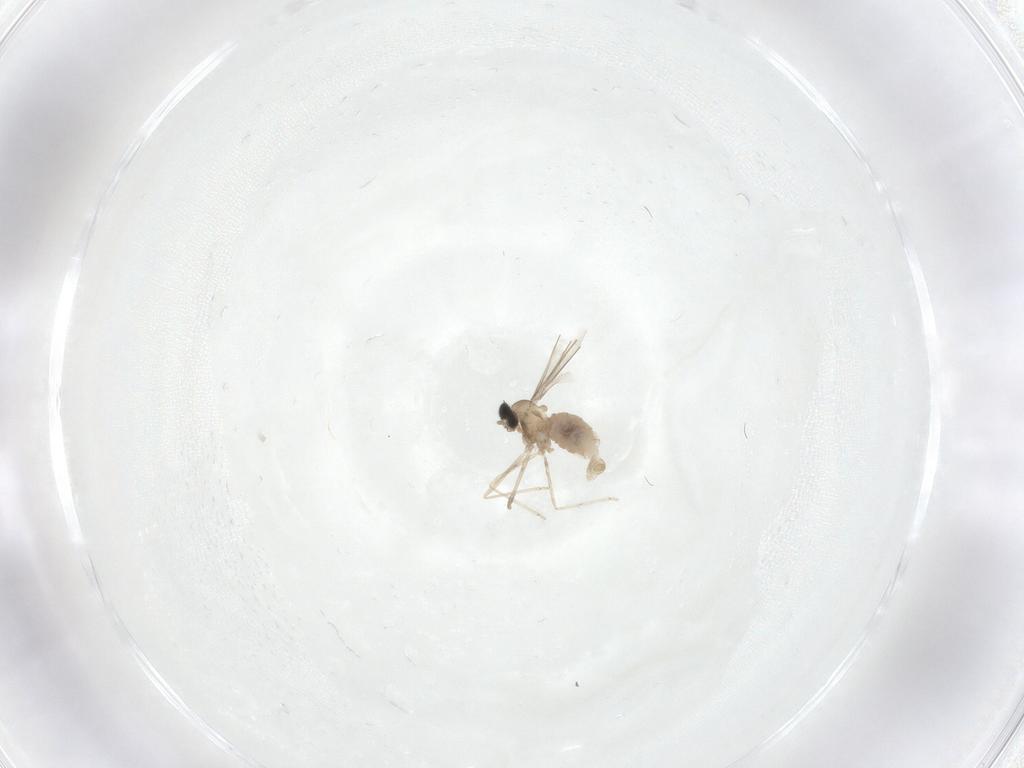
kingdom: Animalia
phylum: Arthropoda
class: Insecta
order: Diptera
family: Cecidomyiidae
